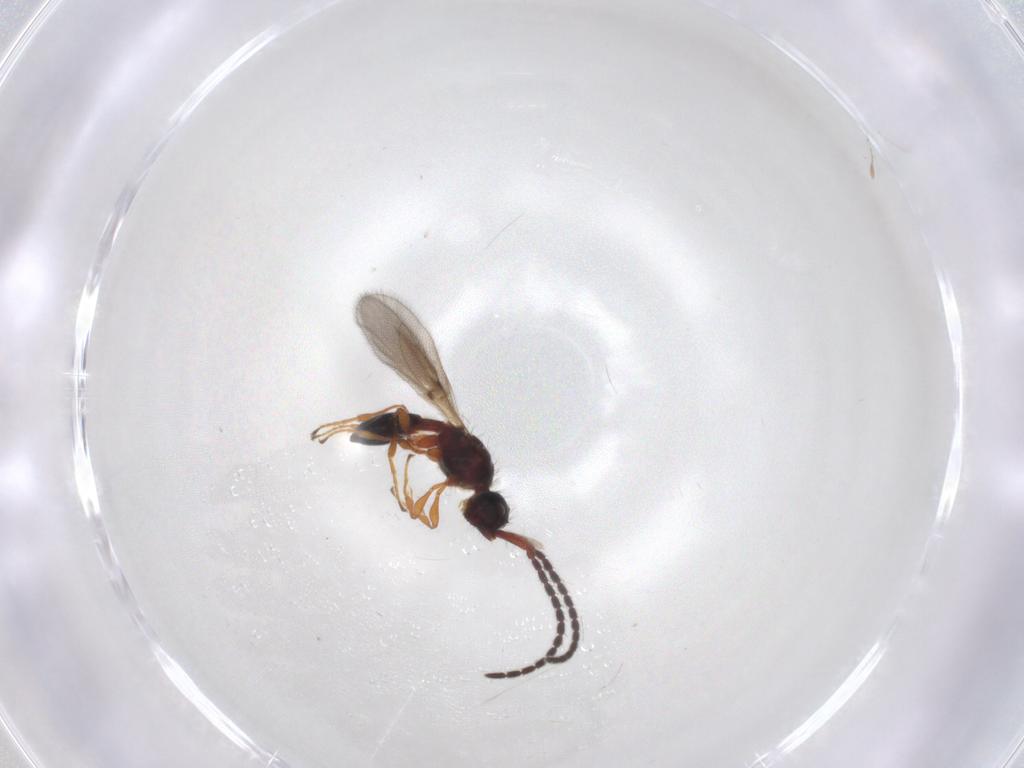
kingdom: Animalia
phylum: Arthropoda
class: Insecta
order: Hymenoptera
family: Diapriidae
